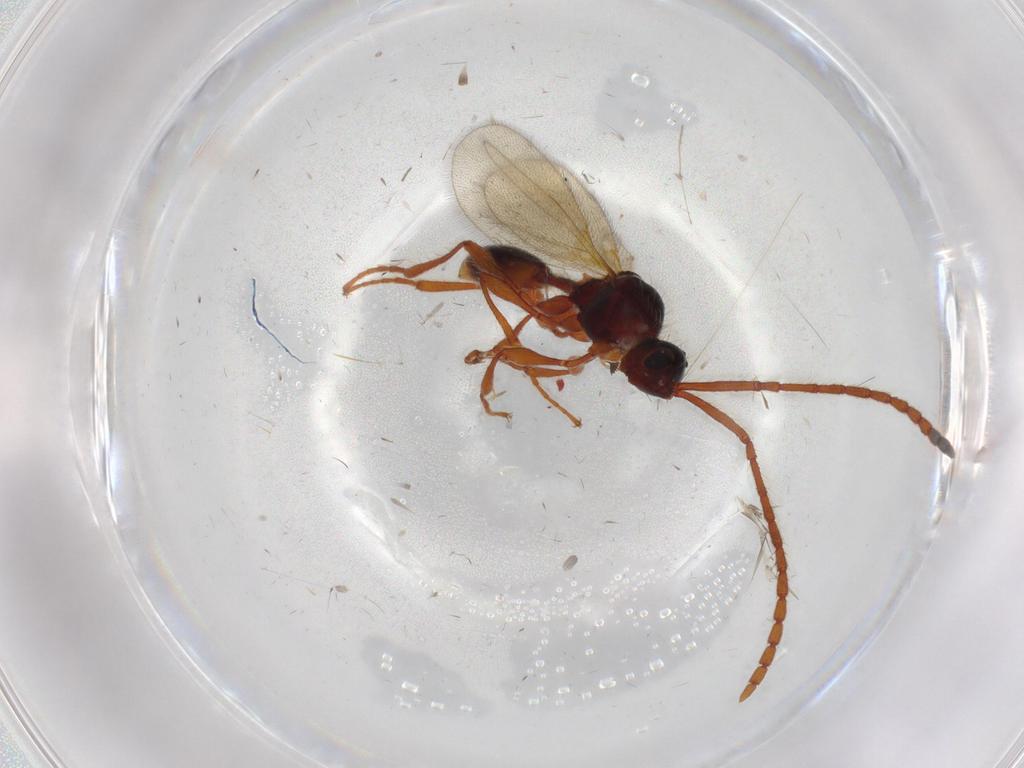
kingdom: Animalia
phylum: Arthropoda
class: Insecta
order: Hymenoptera
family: Diapriidae
